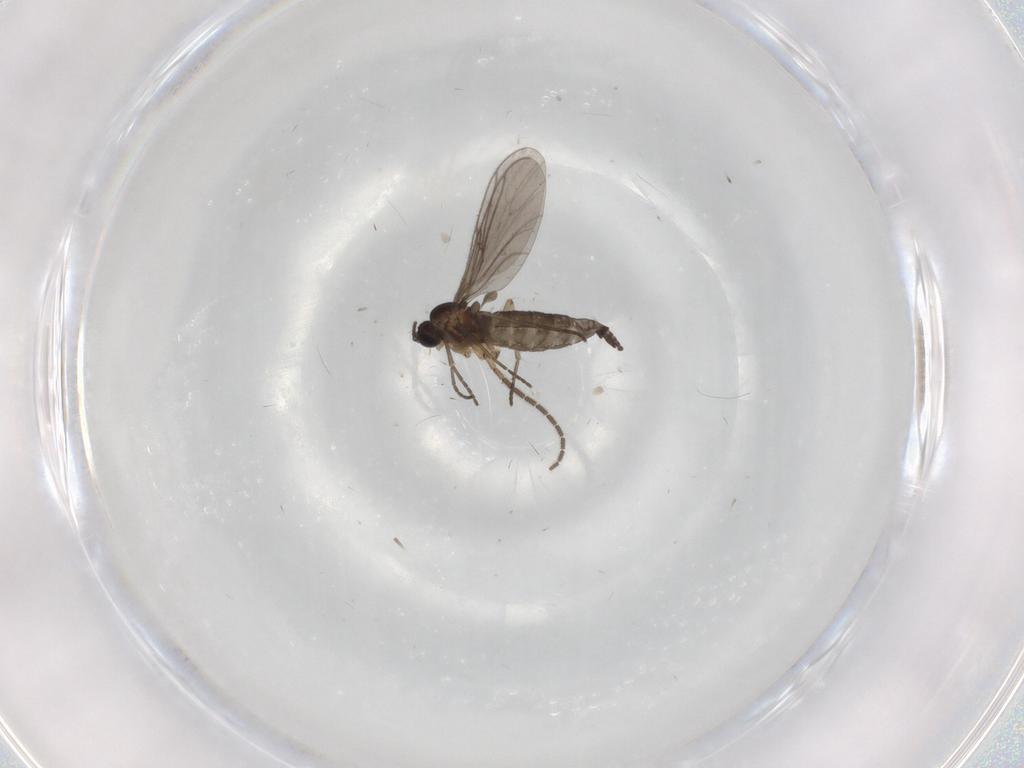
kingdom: Animalia
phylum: Arthropoda
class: Insecta
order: Diptera
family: Sciaridae
